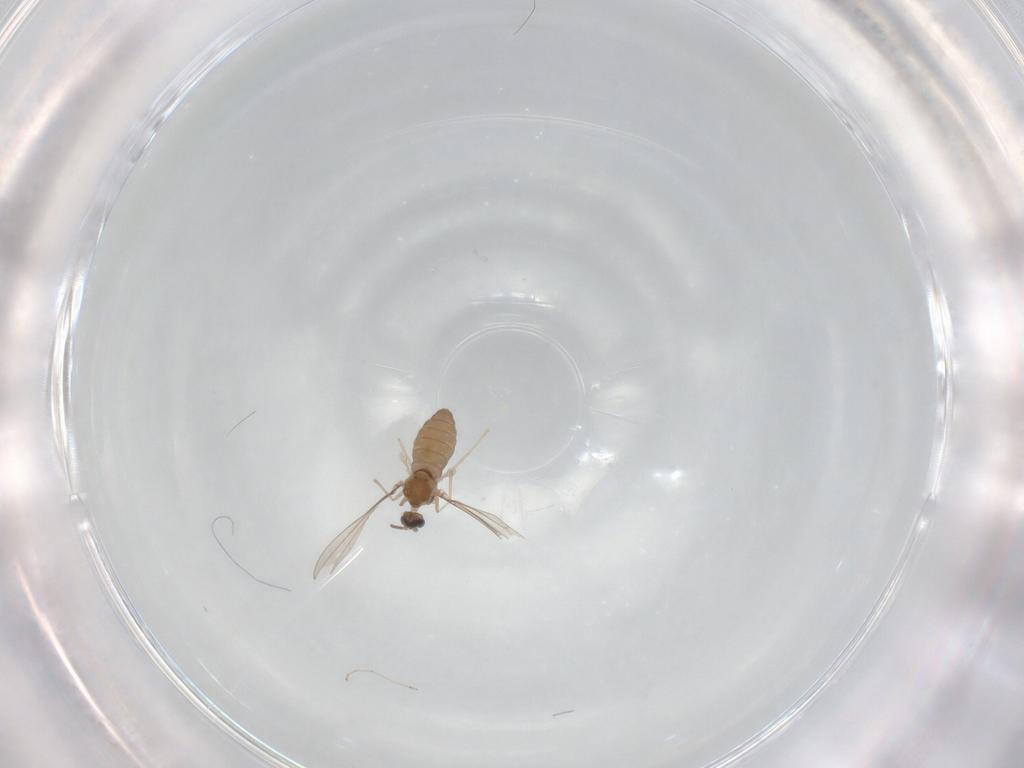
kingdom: Animalia
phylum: Arthropoda
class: Insecta
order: Diptera
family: Cecidomyiidae
